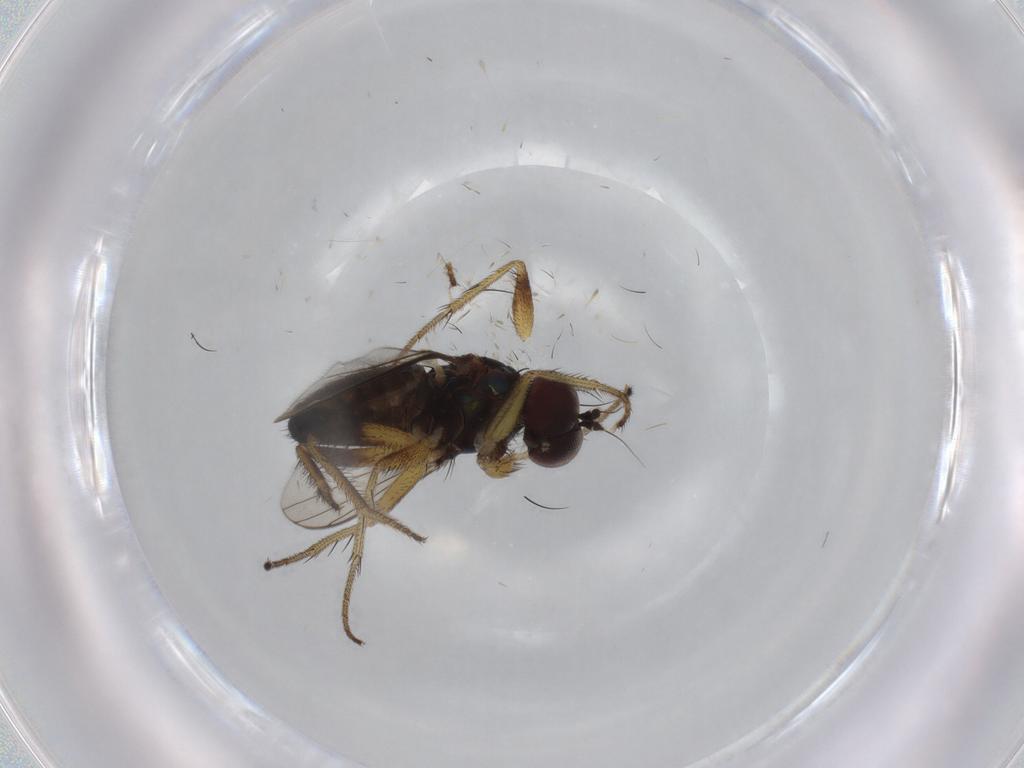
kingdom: Animalia
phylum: Arthropoda
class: Insecta
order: Diptera
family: Dolichopodidae
